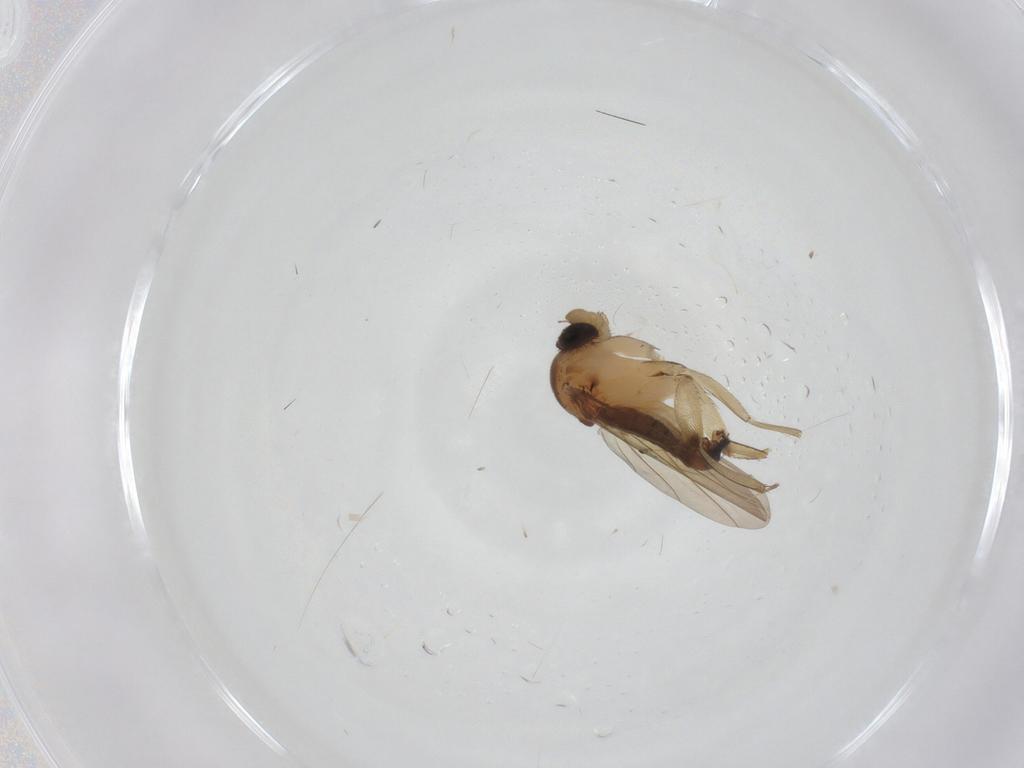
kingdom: Animalia
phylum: Arthropoda
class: Insecta
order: Diptera
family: Phoridae
